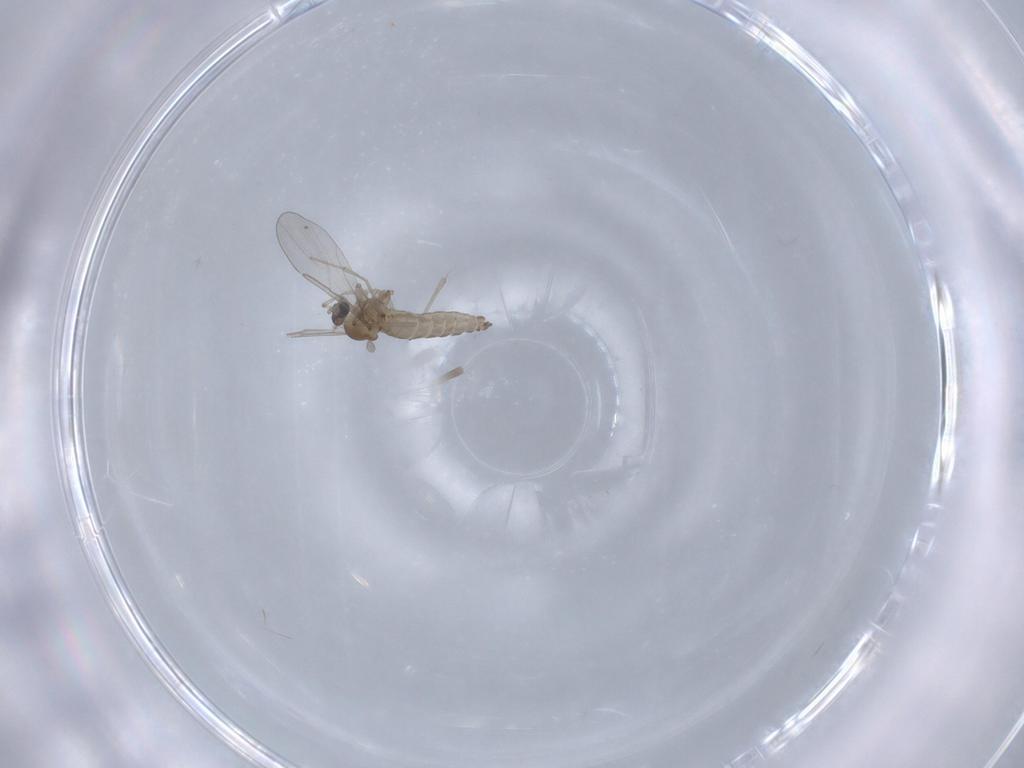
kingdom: Animalia
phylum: Arthropoda
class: Insecta
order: Diptera
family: Cecidomyiidae
